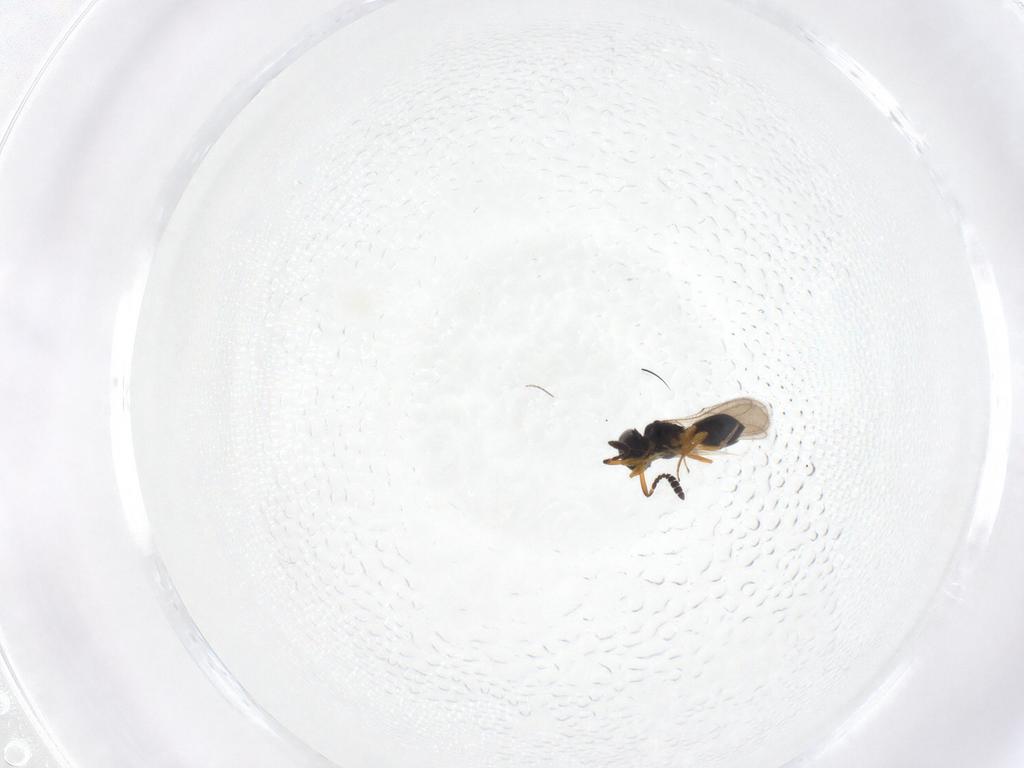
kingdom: Animalia
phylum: Arthropoda
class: Insecta
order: Hymenoptera
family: Scelionidae
